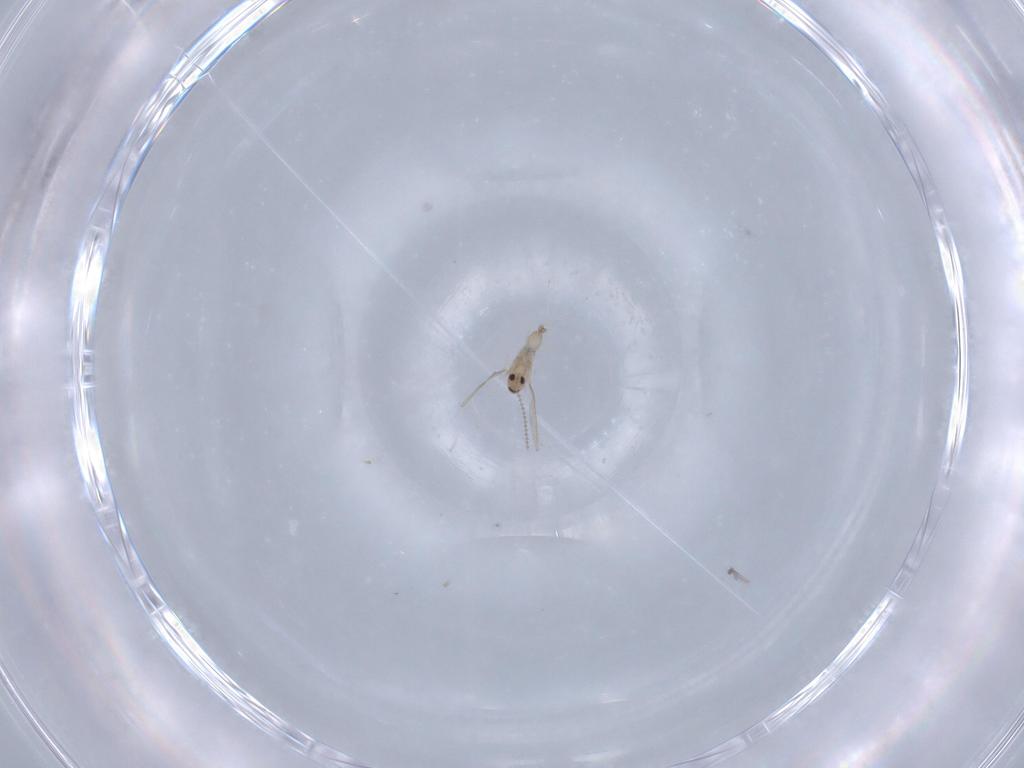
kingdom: Animalia
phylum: Arthropoda
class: Insecta
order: Diptera
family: Cecidomyiidae
